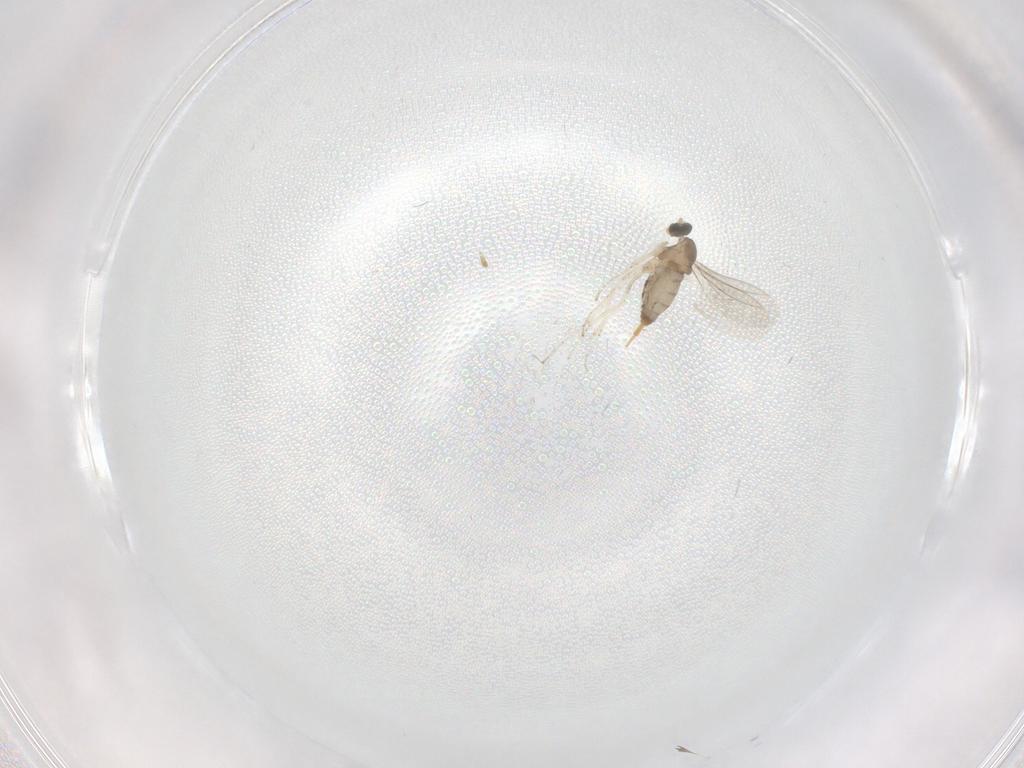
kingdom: Animalia
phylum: Arthropoda
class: Insecta
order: Diptera
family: Cecidomyiidae
